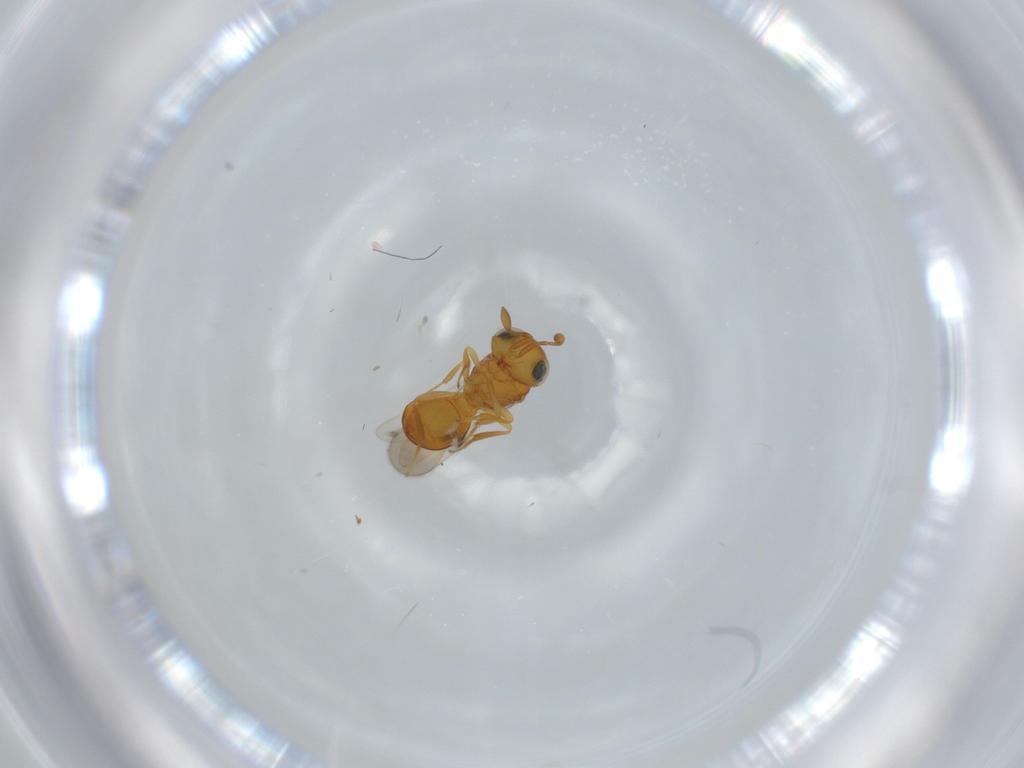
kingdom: Animalia
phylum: Arthropoda
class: Insecta
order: Hymenoptera
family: Scelionidae
